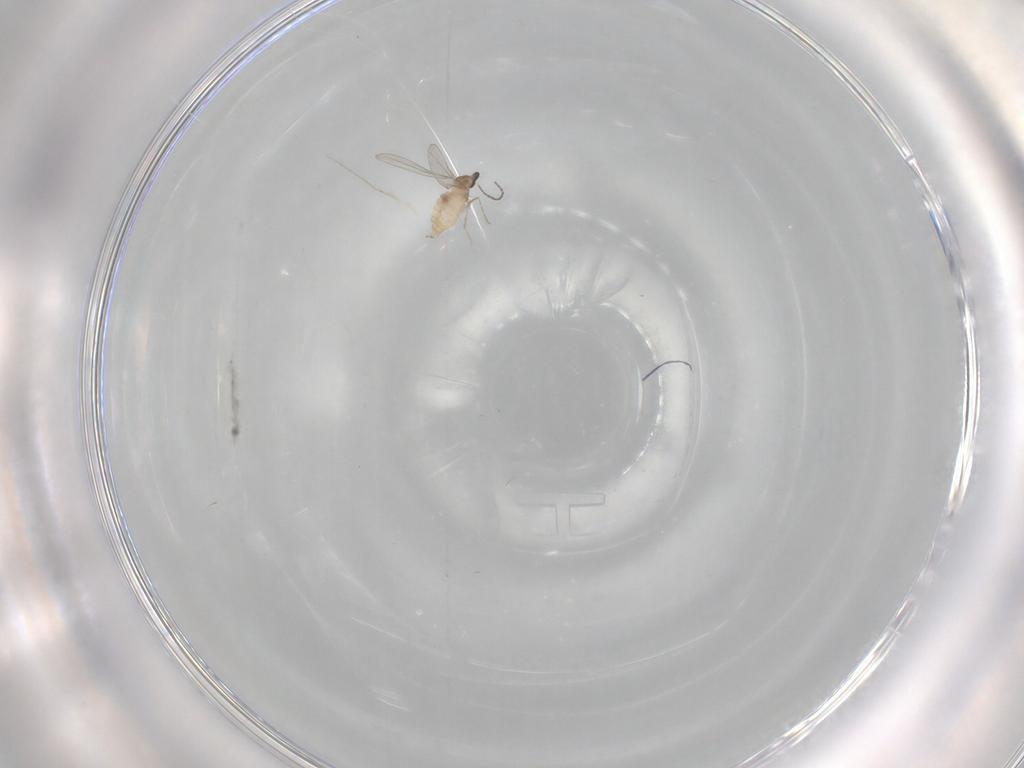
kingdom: Animalia
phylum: Arthropoda
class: Insecta
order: Diptera
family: Cecidomyiidae
